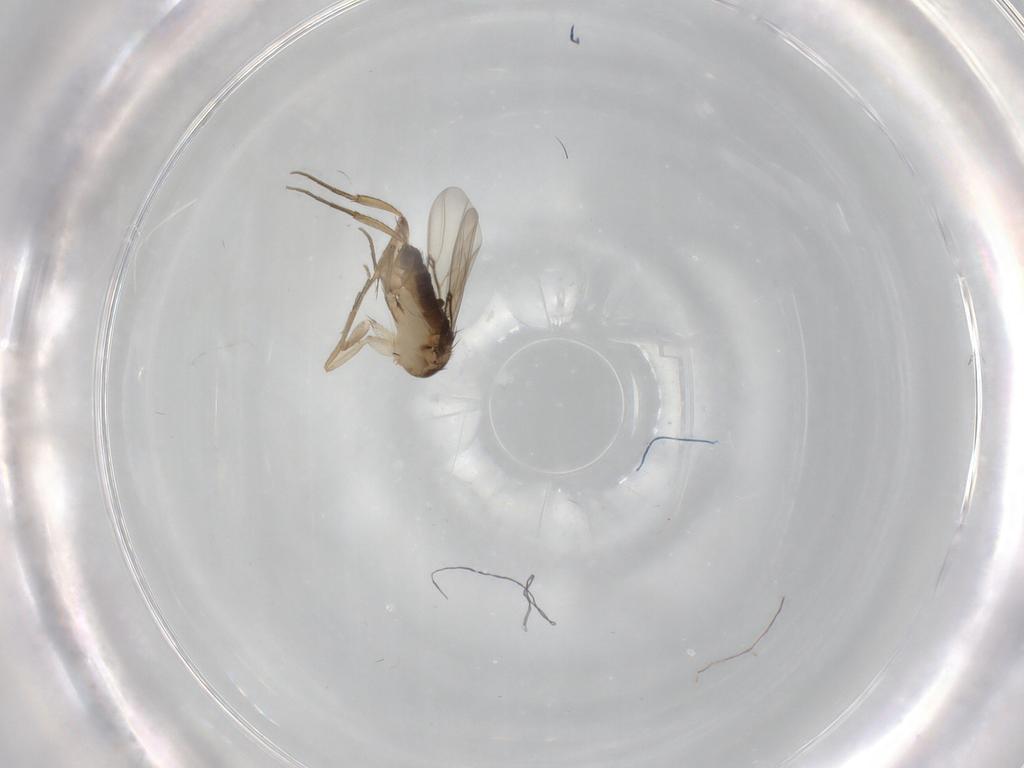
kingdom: Animalia
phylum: Arthropoda
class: Insecta
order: Diptera
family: Phoridae
